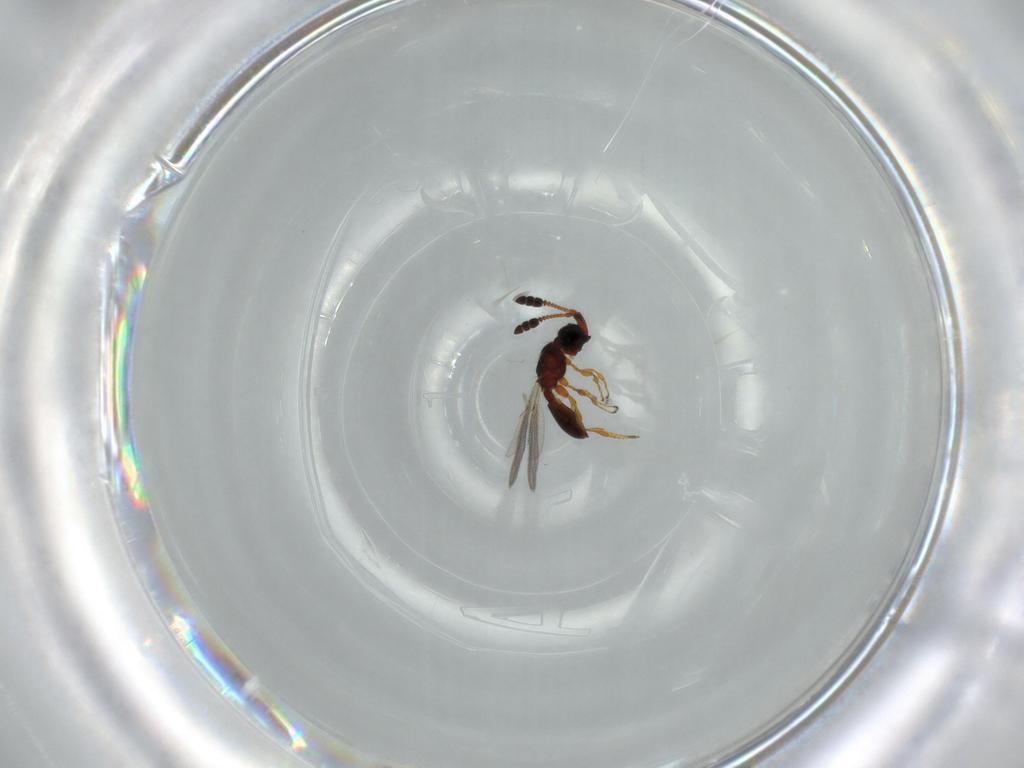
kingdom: Animalia
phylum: Arthropoda
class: Insecta
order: Hymenoptera
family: Diapriidae
